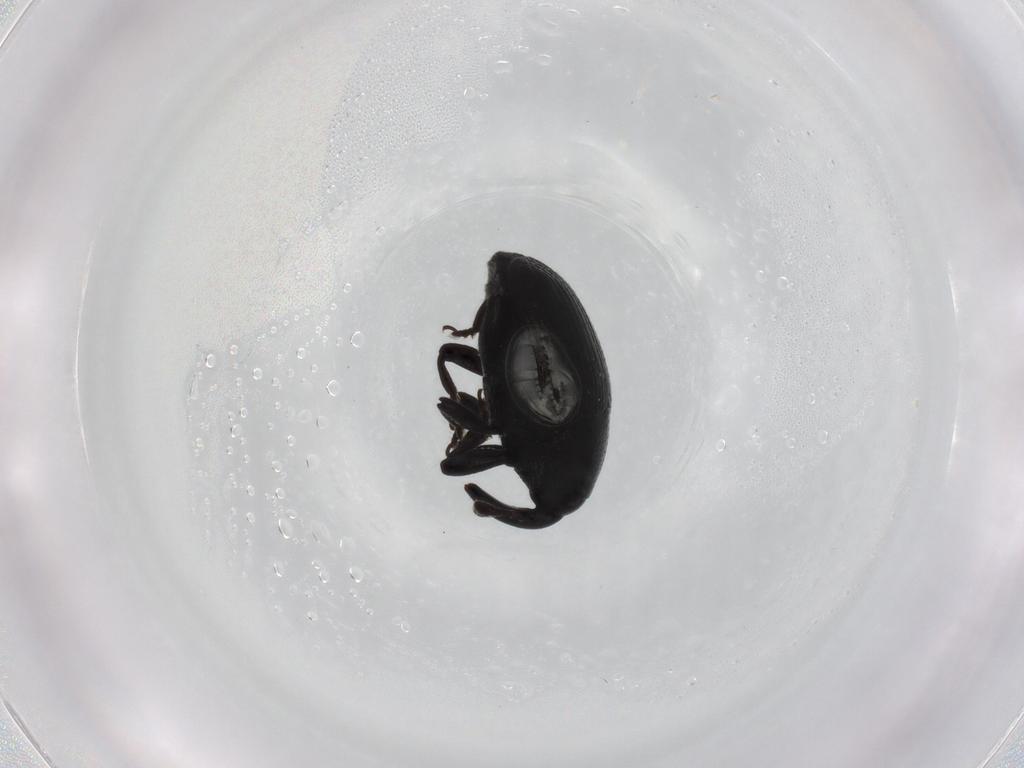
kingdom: Animalia
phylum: Arthropoda
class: Insecta
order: Coleoptera
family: Curculionidae
